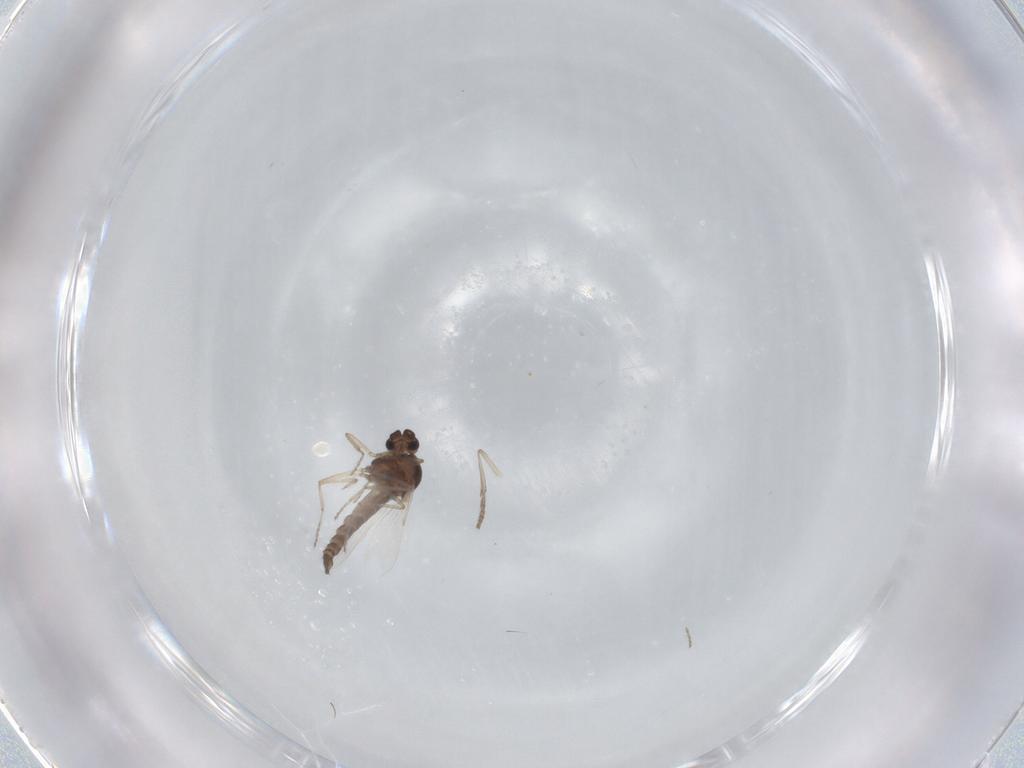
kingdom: Animalia
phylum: Arthropoda
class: Insecta
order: Diptera
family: Ceratopogonidae
